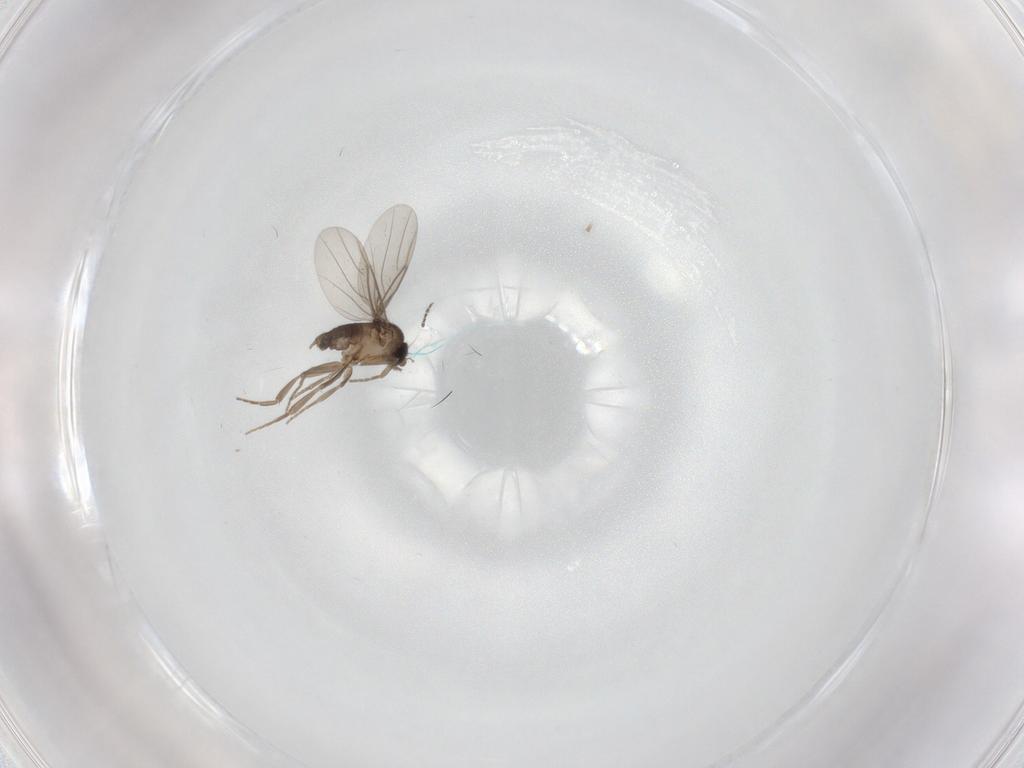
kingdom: Animalia
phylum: Arthropoda
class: Insecta
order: Diptera
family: Sciaridae
